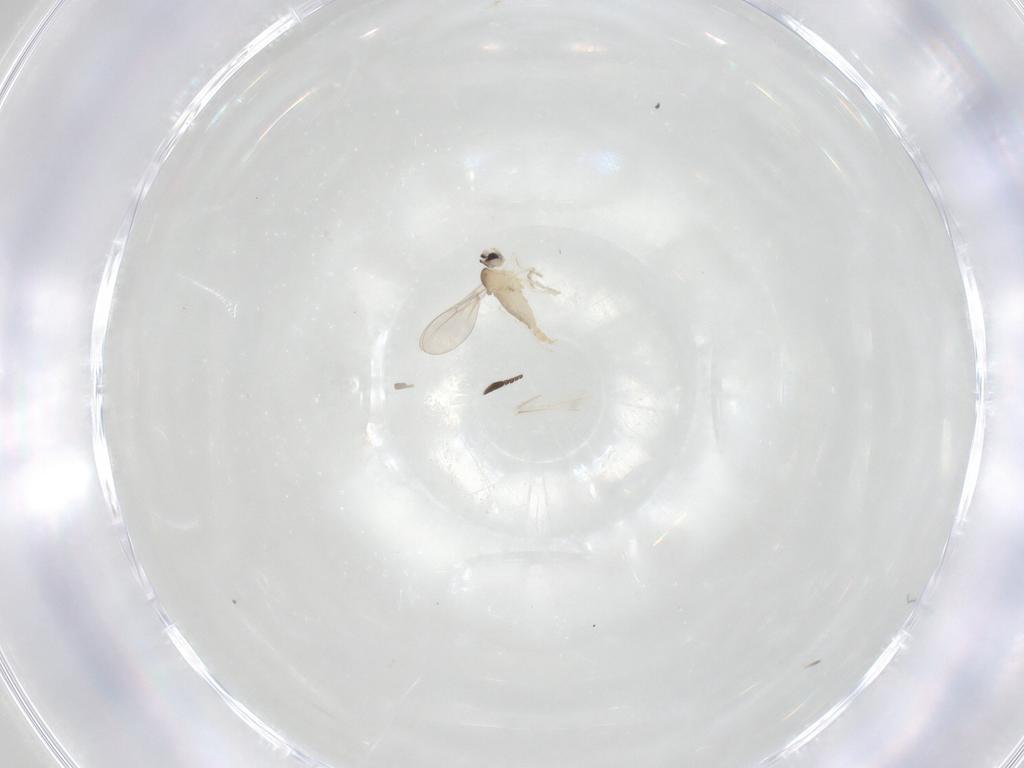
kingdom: Animalia
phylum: Arthropoda
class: Insecta
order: Diptera
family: Cecidomyiidae
